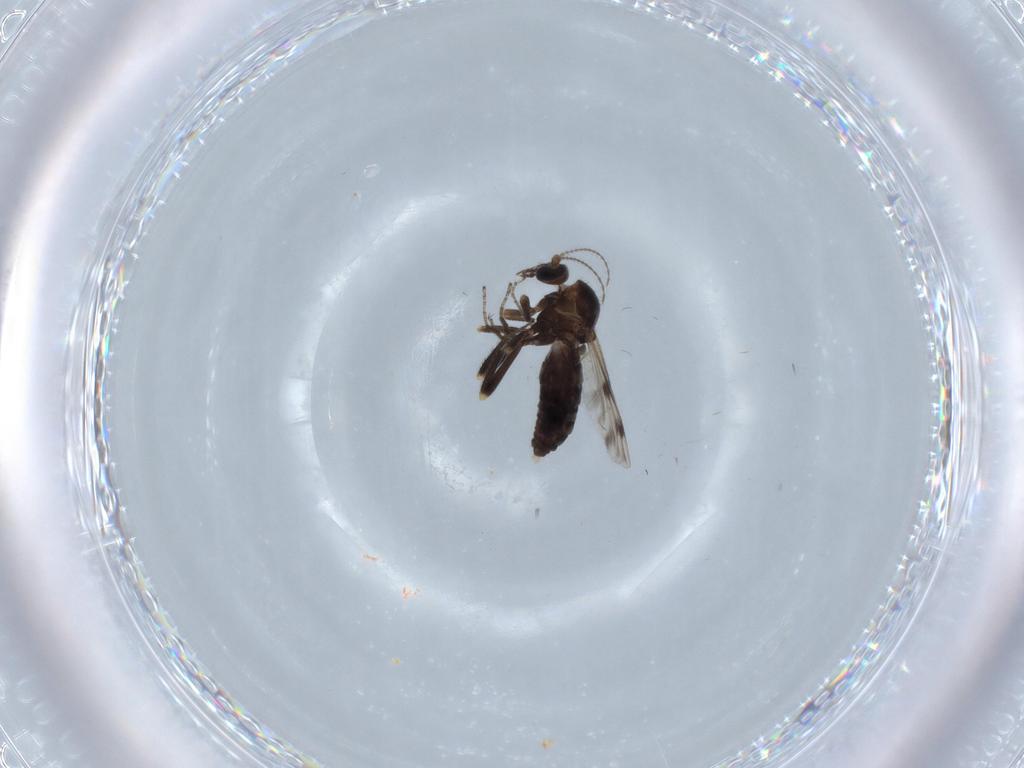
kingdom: Animalia
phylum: Arthropoda
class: Insecta
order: Diptera
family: Ceratopogonidae
